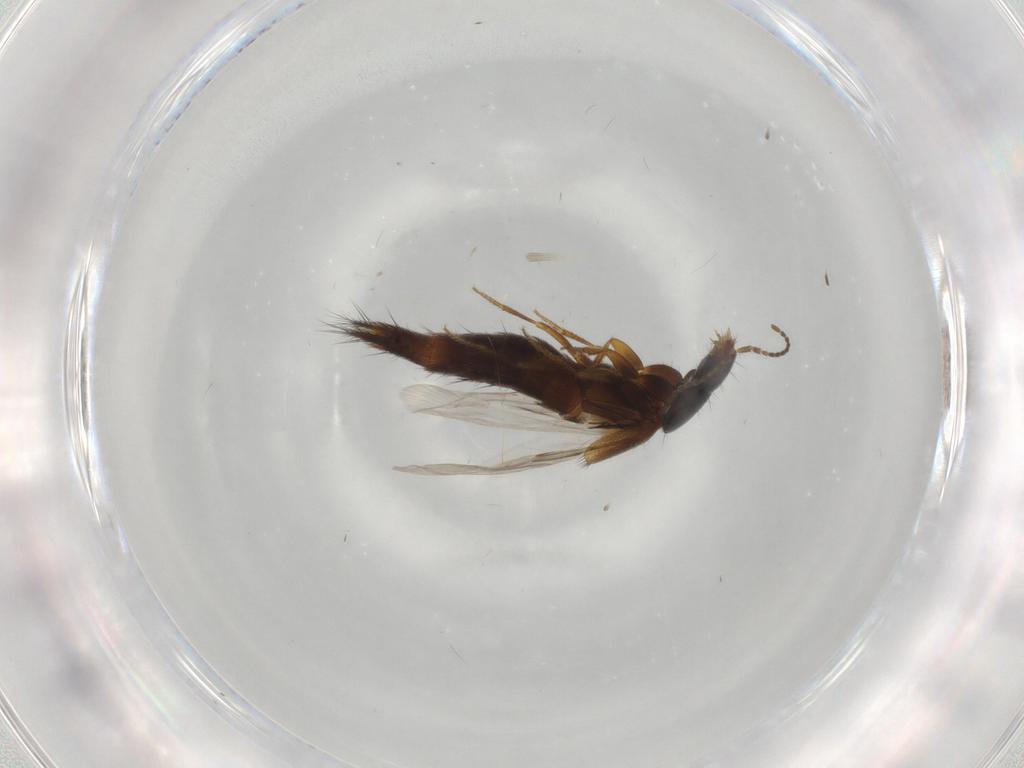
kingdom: Animalia
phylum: Arthropoda
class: Insecta
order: Coleoptera
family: Staphylinidae
